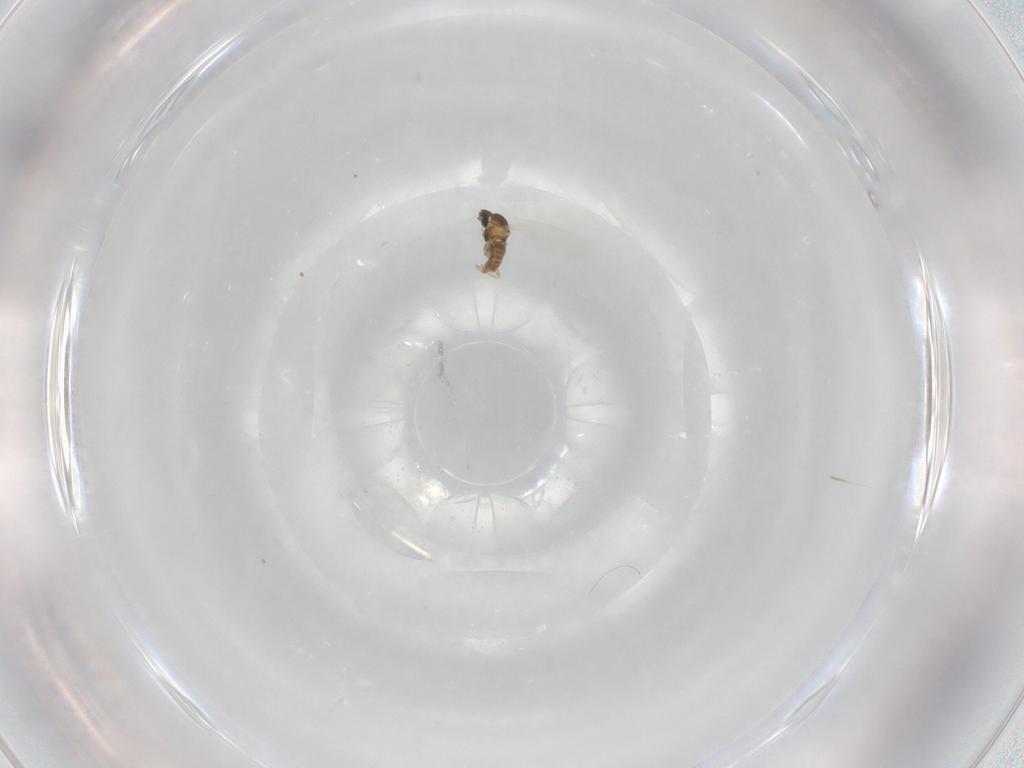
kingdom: Animalia
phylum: Arthropoda
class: Insecta
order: Diptera
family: Cecidomyiidae
